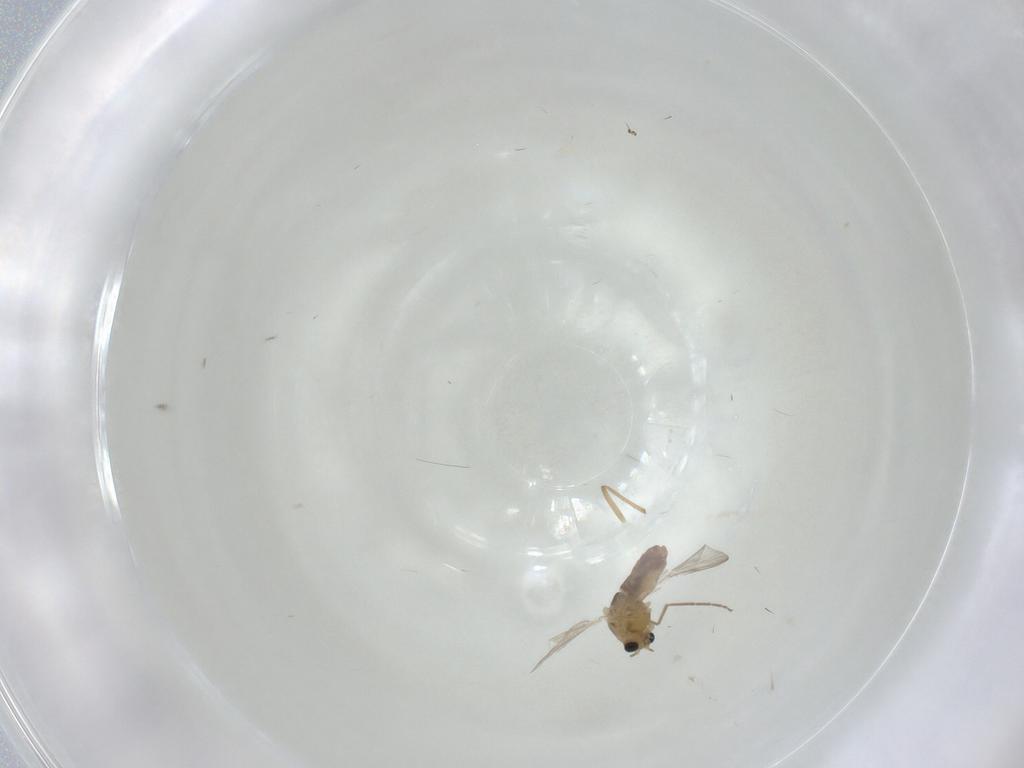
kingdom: Animalia
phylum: Arthropoda
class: Insecta
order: Diptera
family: Chironomidae
